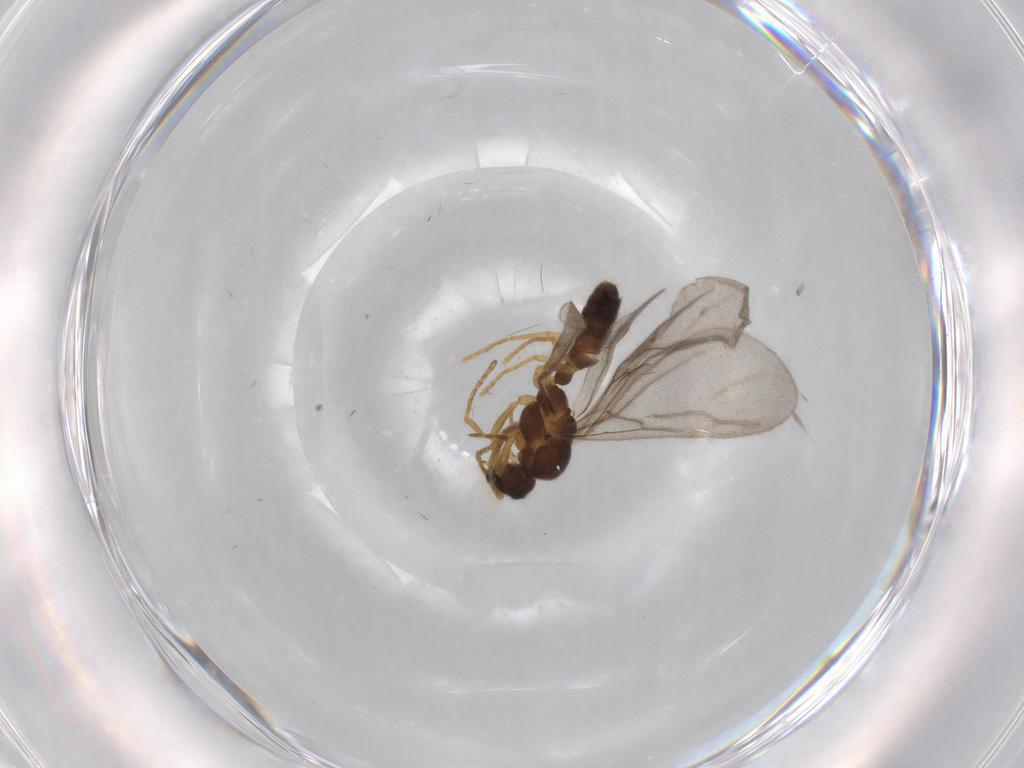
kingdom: Animalia
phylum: Arthropoda
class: Insecta
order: Hymenoptera
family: Formicidae
